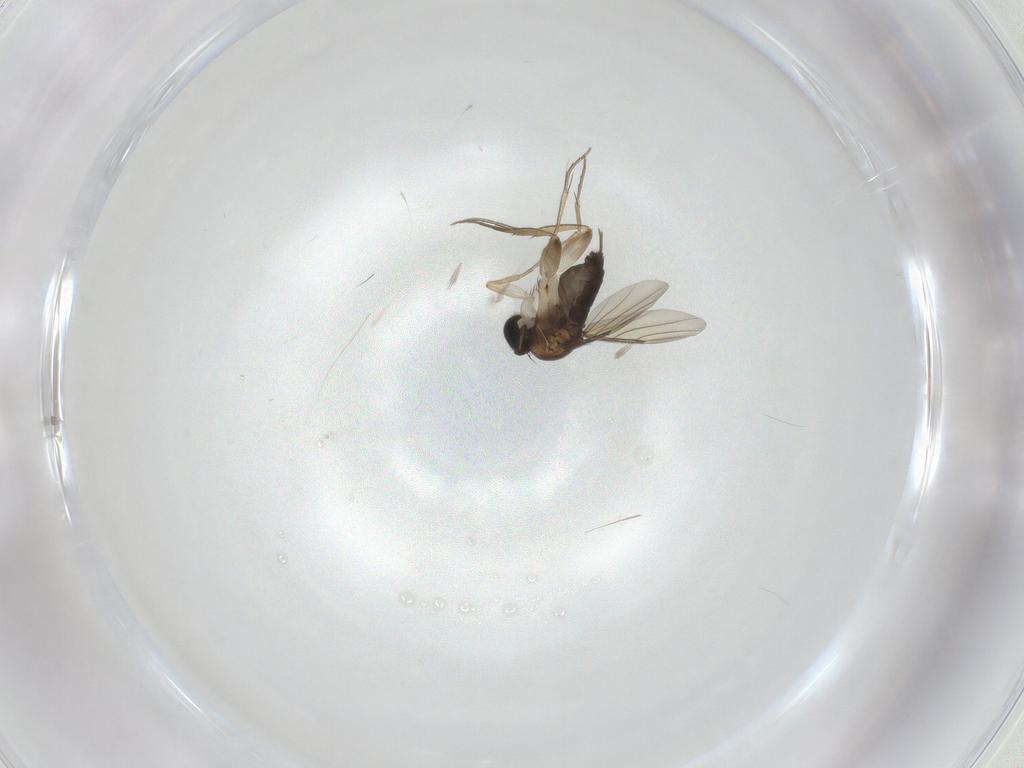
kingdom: Animalia
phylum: Arthropoda
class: Insecta
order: Diptera
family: Phoridae
